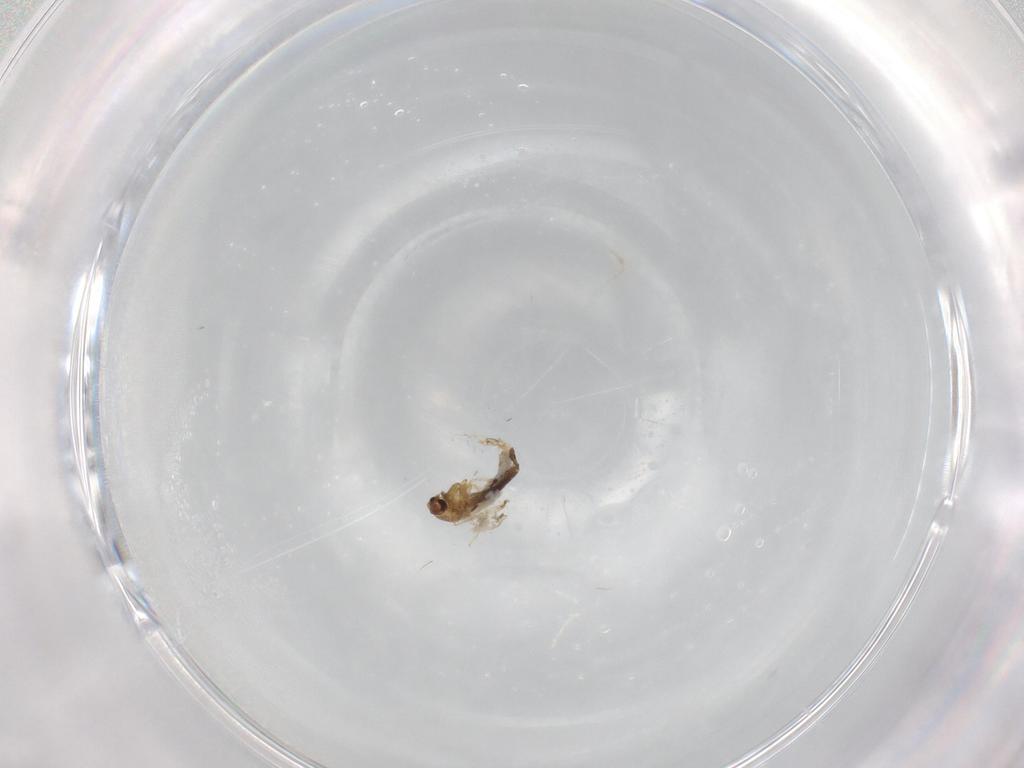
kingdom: Animalia
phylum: Arthropoda
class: Insecta
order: Diptera
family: Chironomidae
